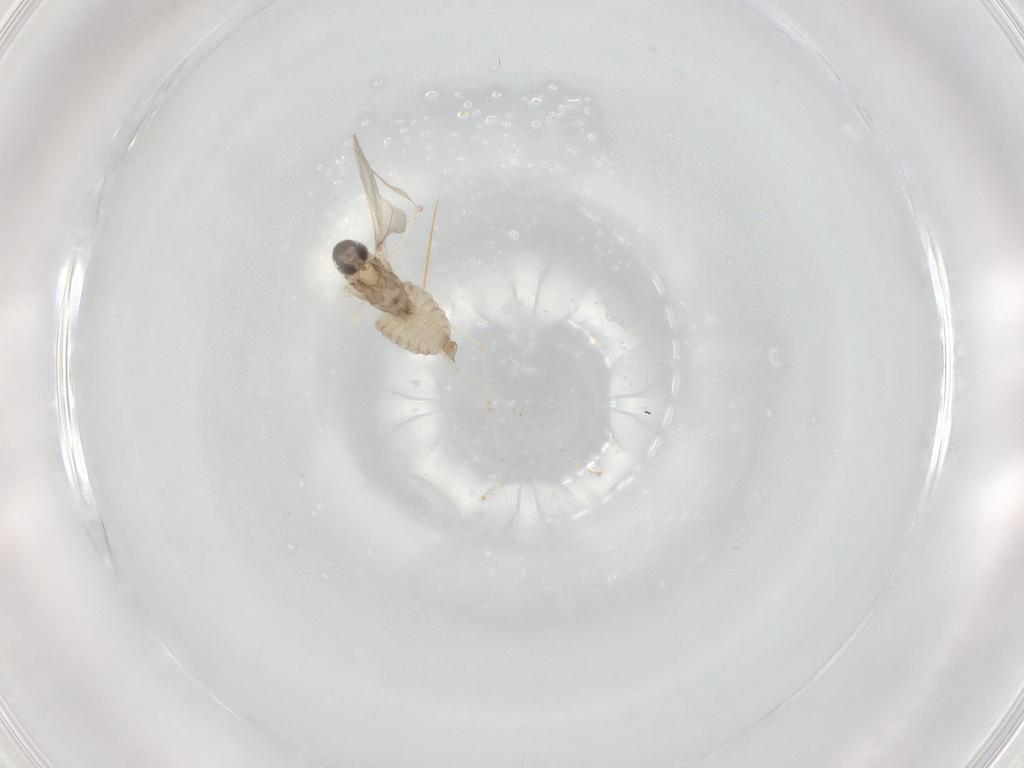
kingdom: Animalia
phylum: Arthropoda
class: Insecta
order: Diptera
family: Cecidomyiidae
